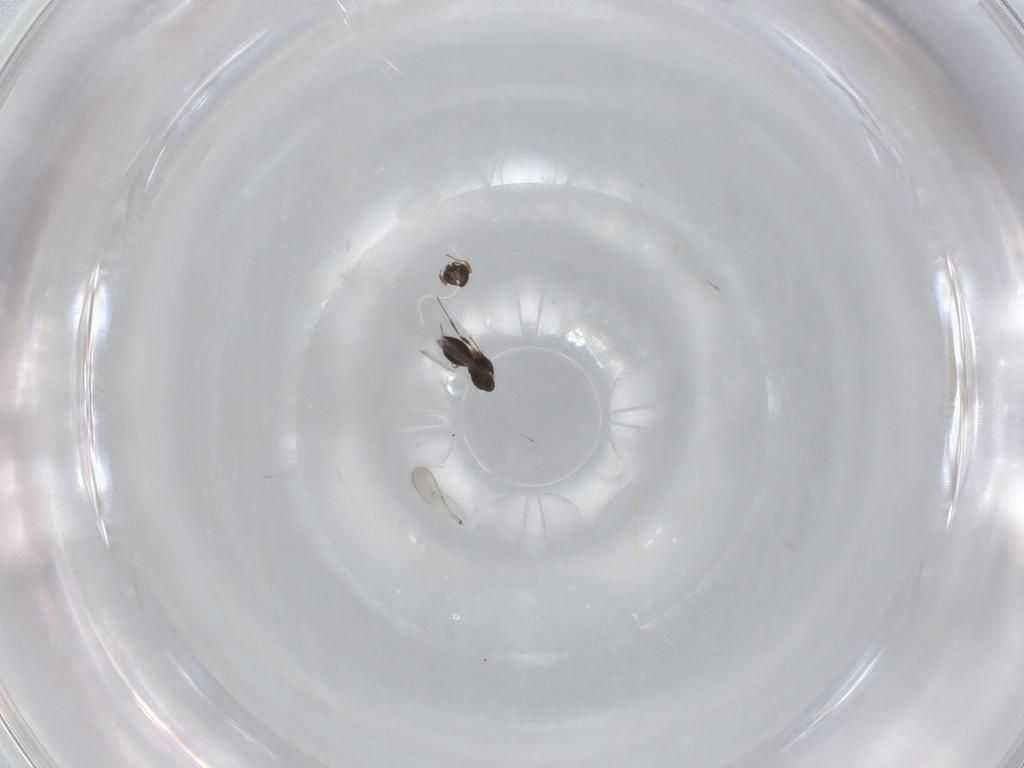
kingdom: Animalia
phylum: Arthropoda
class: Insecta
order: Hymenoptera
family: Scelionidae
